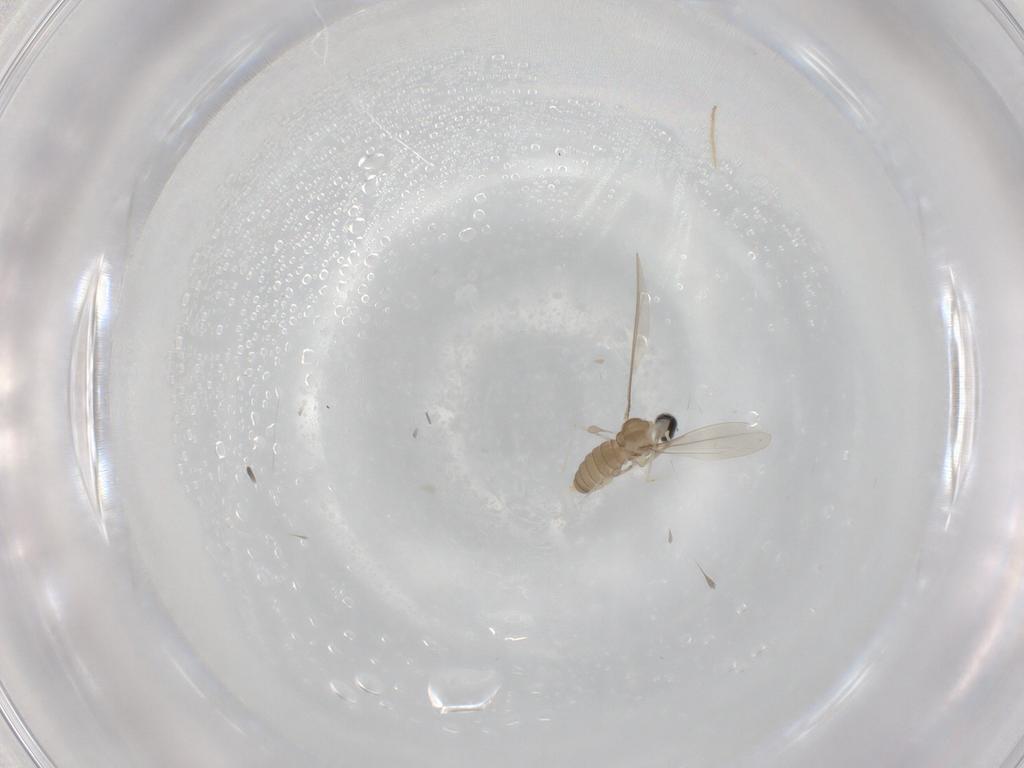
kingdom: Animalia
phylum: Arthropoda
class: Insecta
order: Diptera
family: Cecidomyiidae
